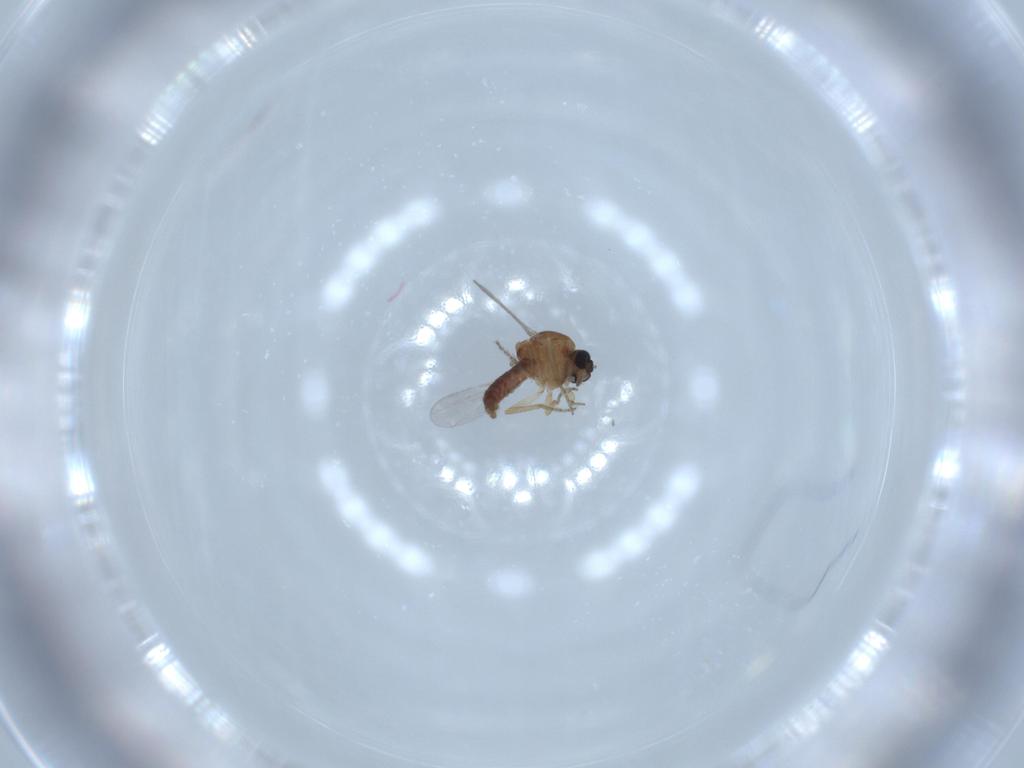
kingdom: Animalia
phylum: Arthropoda
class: Insecta
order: Diptera
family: Ceratopogonidae
